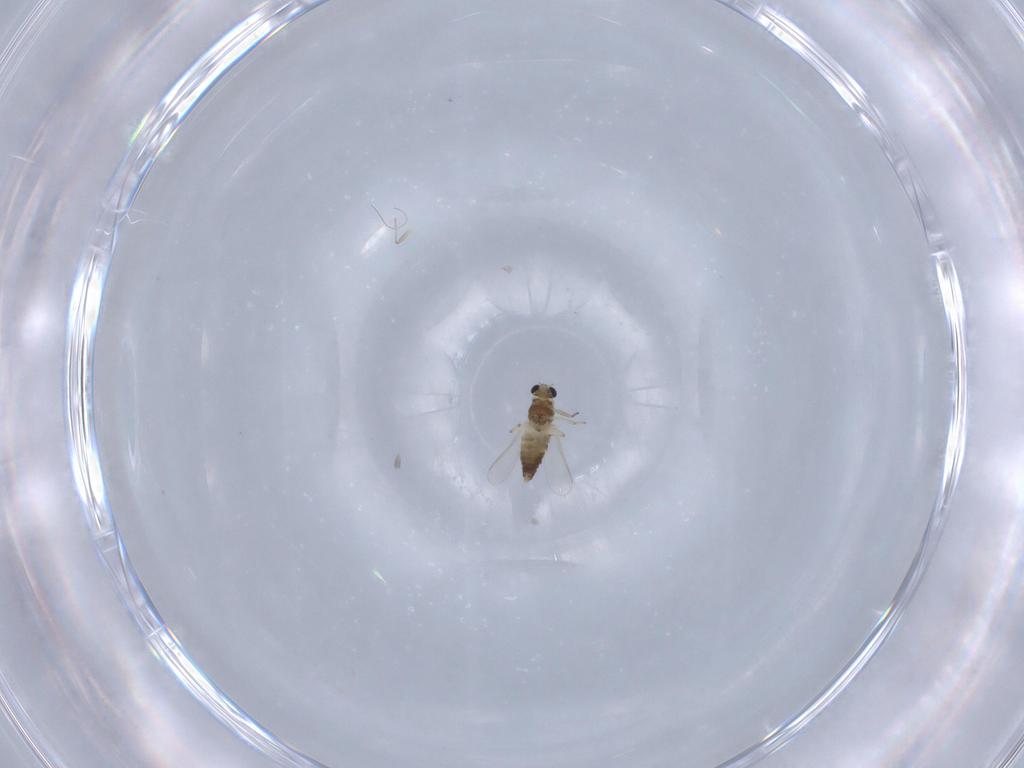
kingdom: Animalia
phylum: Arthropoda
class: Insecta
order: Diptera
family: Chironomidae
